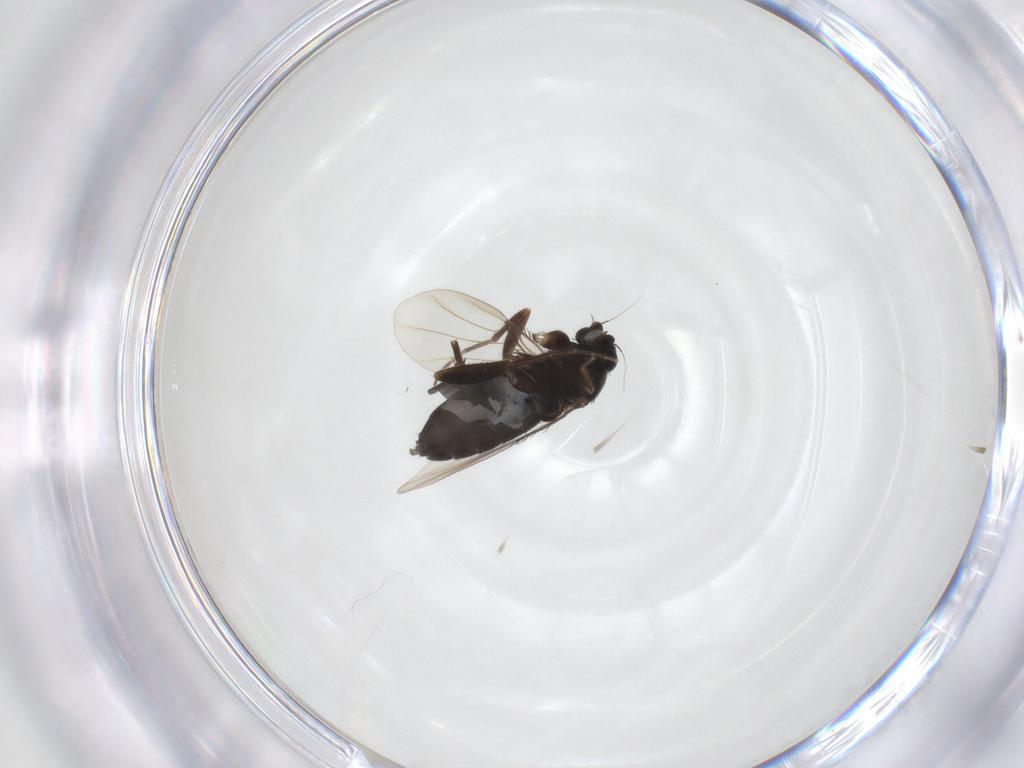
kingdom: Animalia
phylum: Arthropoda
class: Insecta
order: Diptera
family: Phoridae
